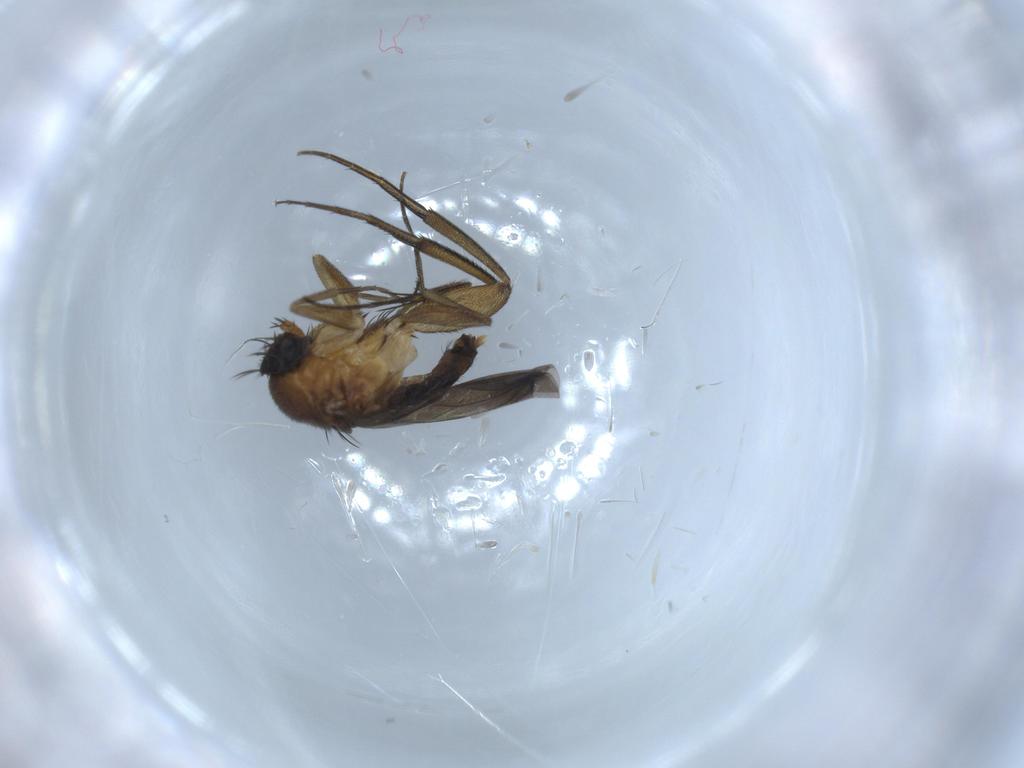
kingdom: Animalia
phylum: Arthropoda
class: Insecta
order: Diptera
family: Phoridae
